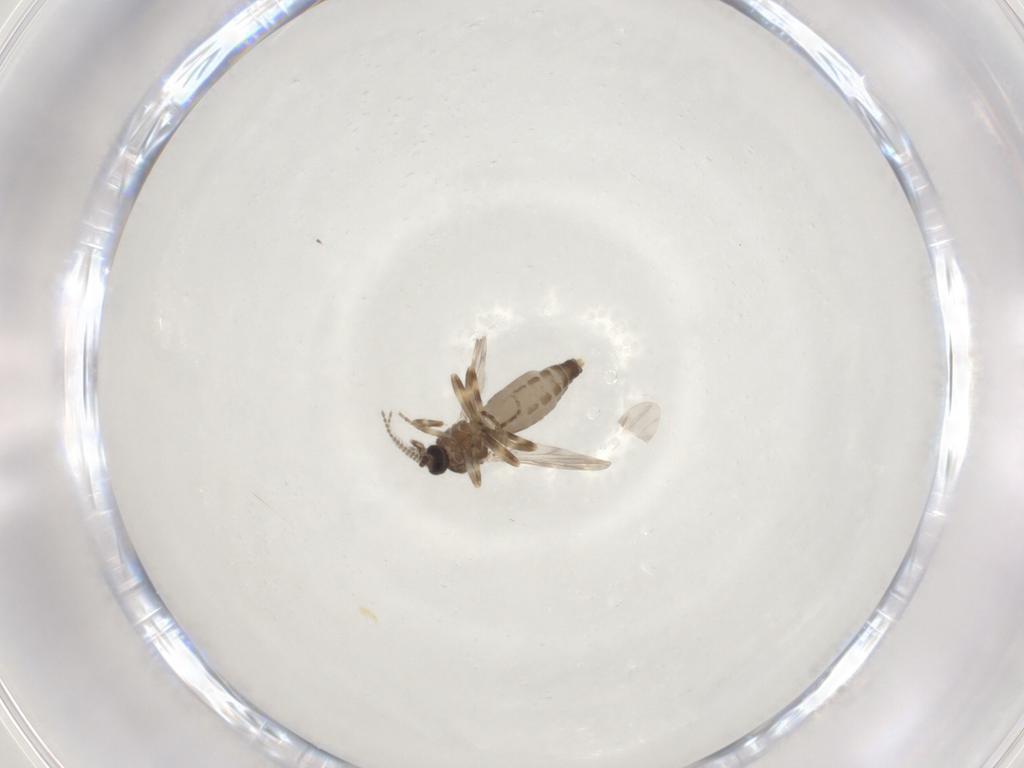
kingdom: Animalia
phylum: Arthropoda
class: Insecta
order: Diptera
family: Ceratopogonidae
